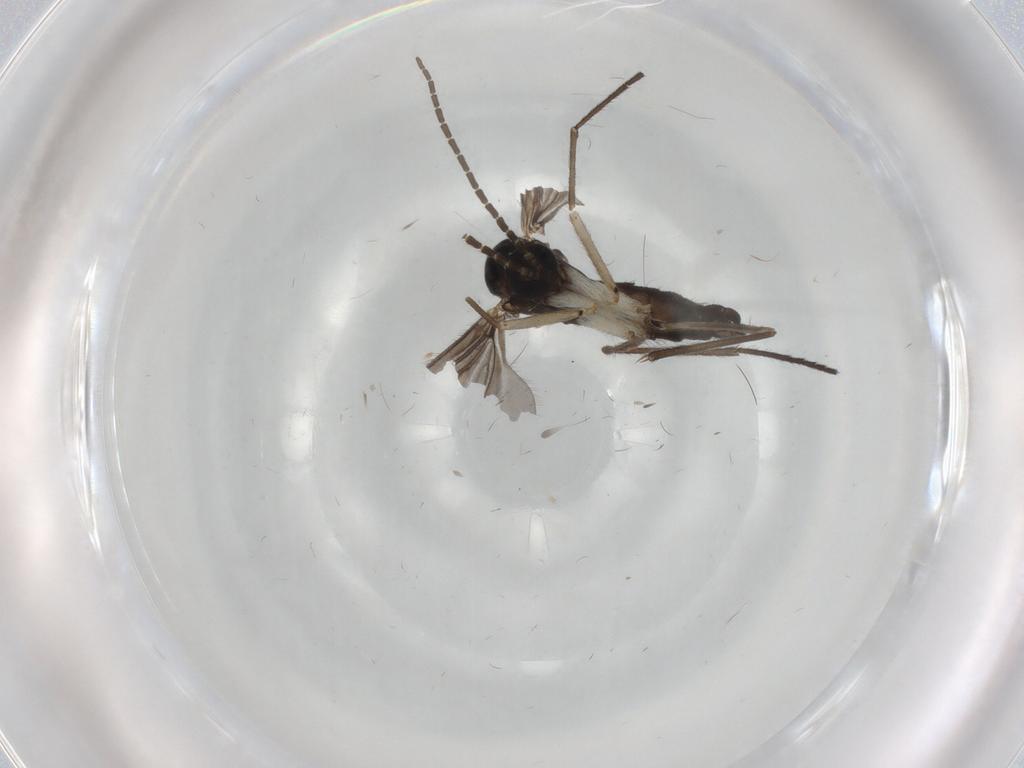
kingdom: Animalia
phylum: Arthropoda
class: Insecta
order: Diptera
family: Sciaridae
